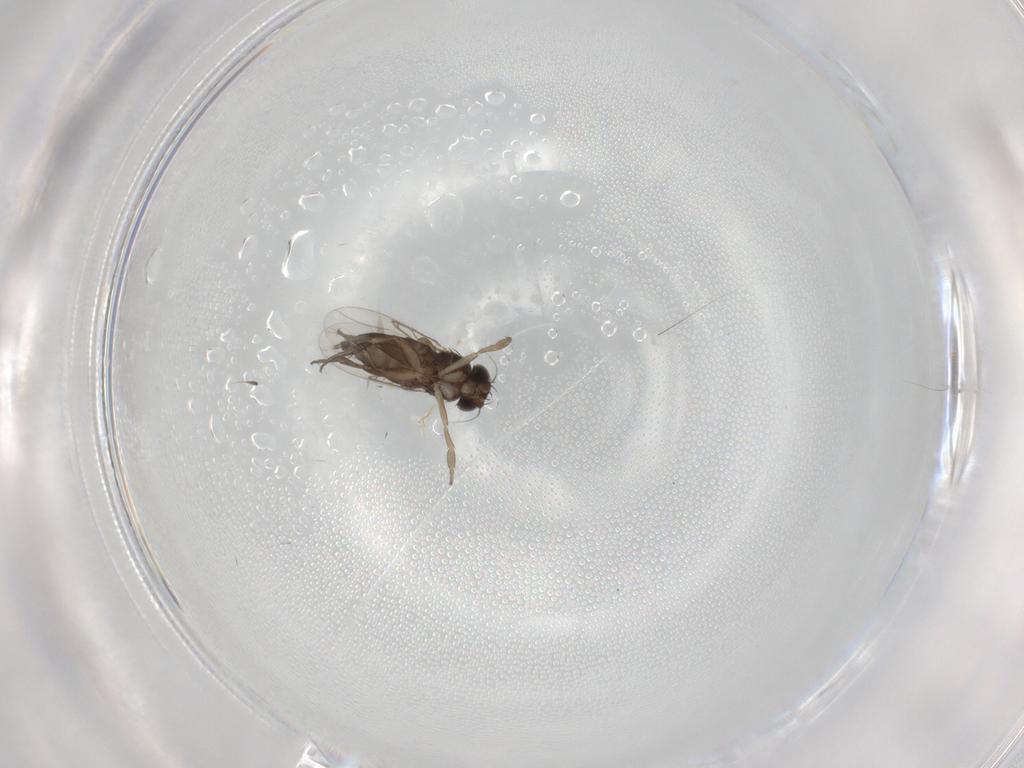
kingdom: Animalia
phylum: Arthropoda
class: Insecta
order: Diptera
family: Phoridae
